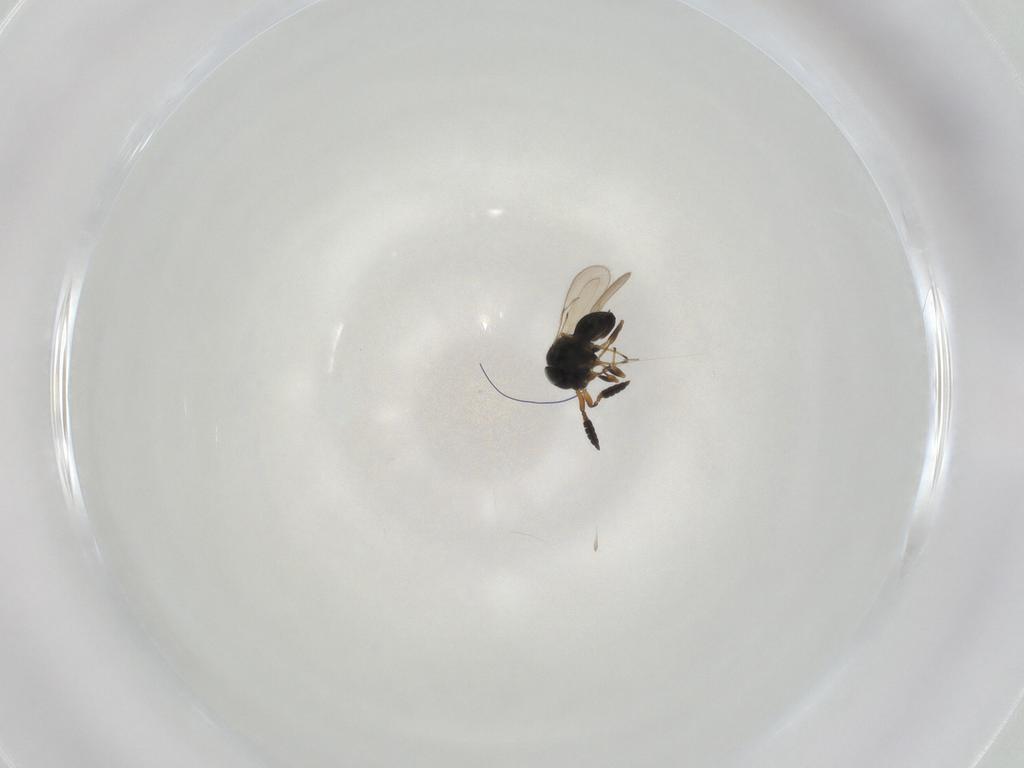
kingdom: Animalia
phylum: Arthropoda
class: Insecta
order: Hymenoptera
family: Scelionidae
